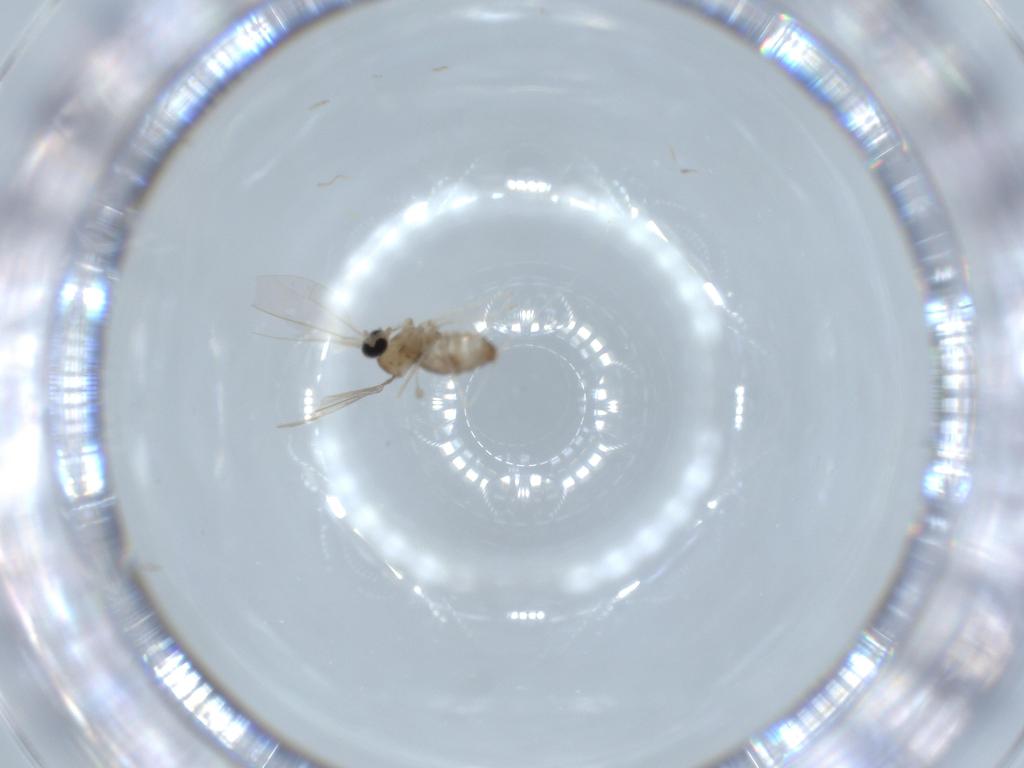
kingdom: Animalia
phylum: Arthropoda
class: Insecta
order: Diptera
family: Cecidomyiidae
